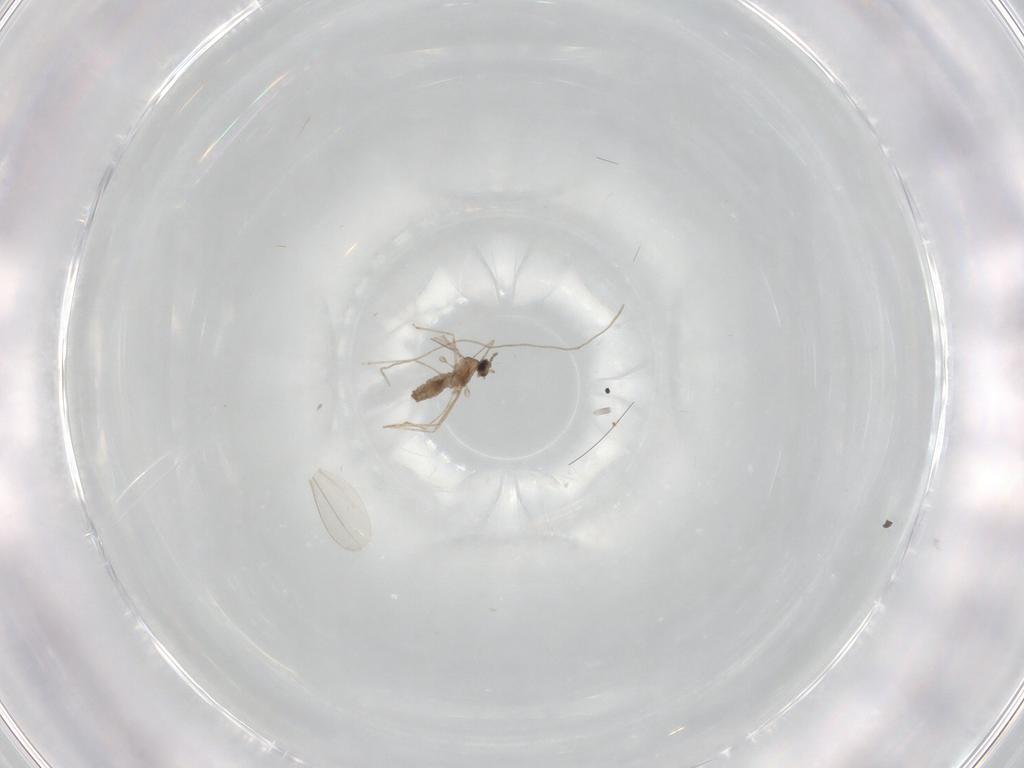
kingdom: Animalia
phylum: Arthropoda
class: Insecta
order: Diptera
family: Cecidomyiidae
